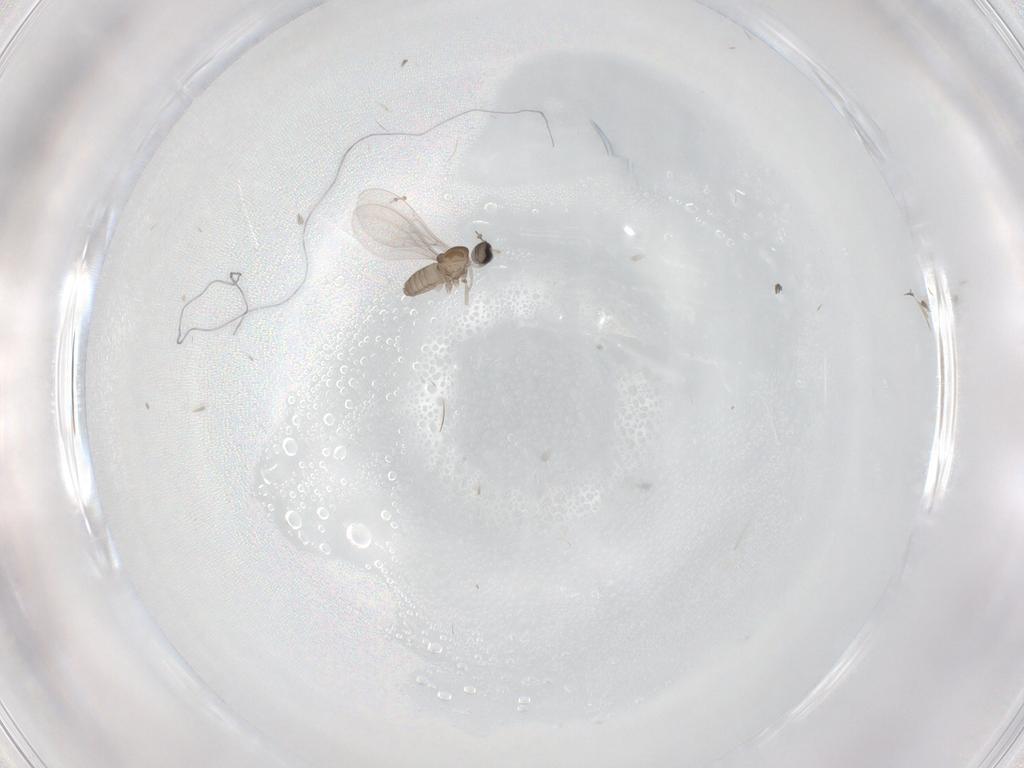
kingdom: Animalia
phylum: Arthropoda
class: Insecta
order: Diptera
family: Cecidomyiidae
